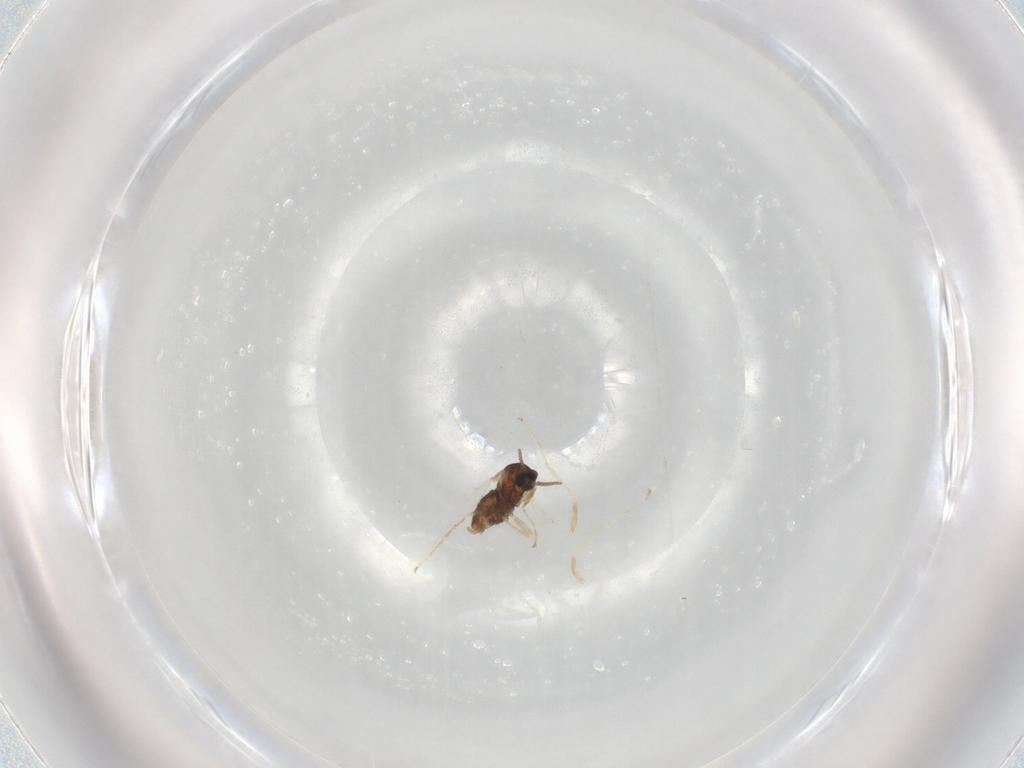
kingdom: Animalia
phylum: Arthropoda
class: Insecta
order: Diptera
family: Cecidomyiidae
